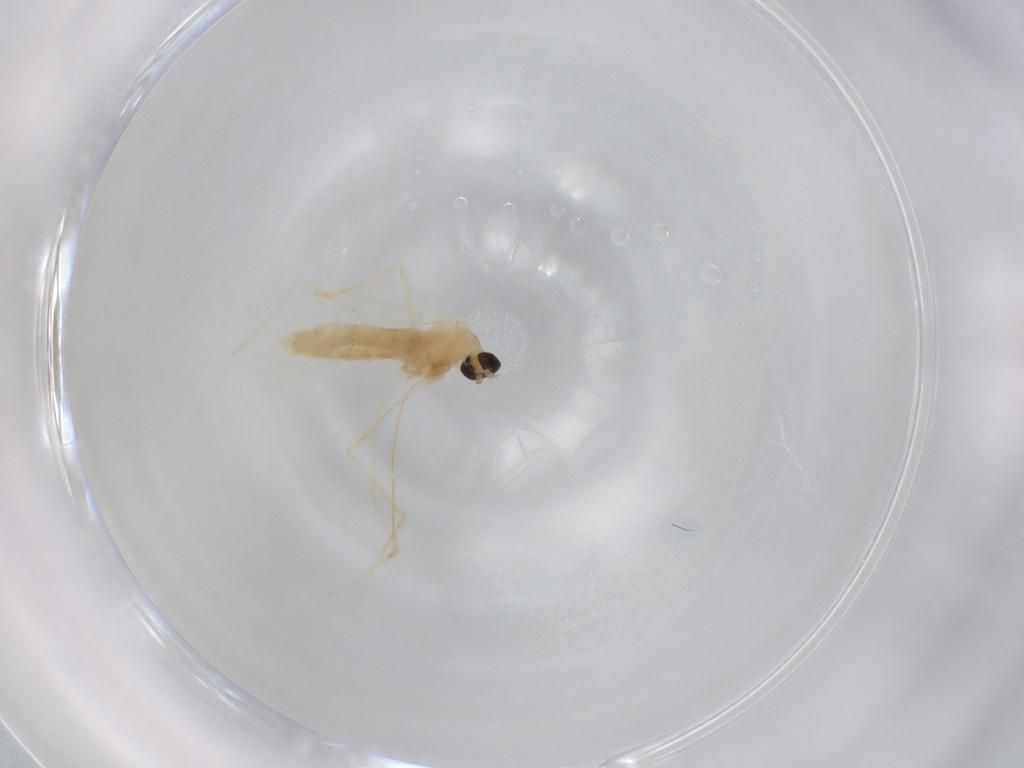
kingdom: Animalia
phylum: Arthropoda
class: Insecta
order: Diptera
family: Cecidomyiidae
